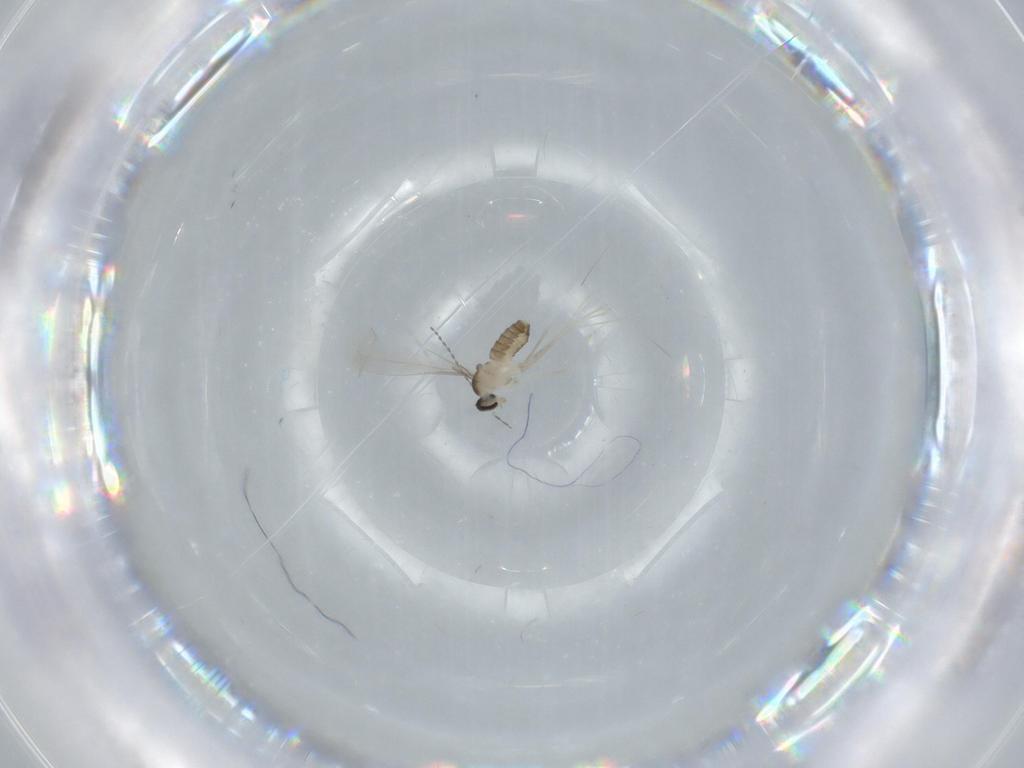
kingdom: Animalia
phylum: Arthropoda
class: Insecta
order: Diptera
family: Cecidomyiidae
